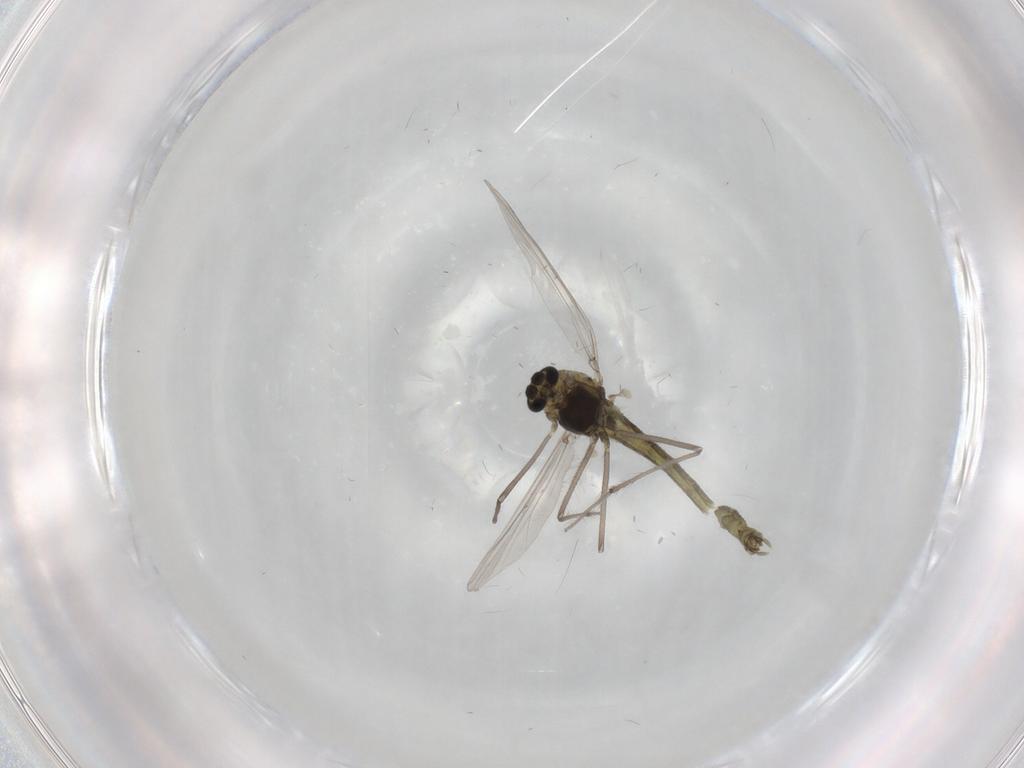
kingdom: Animalia
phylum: Arthropoda
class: Insecta
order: Diptera
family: Chironomidae
